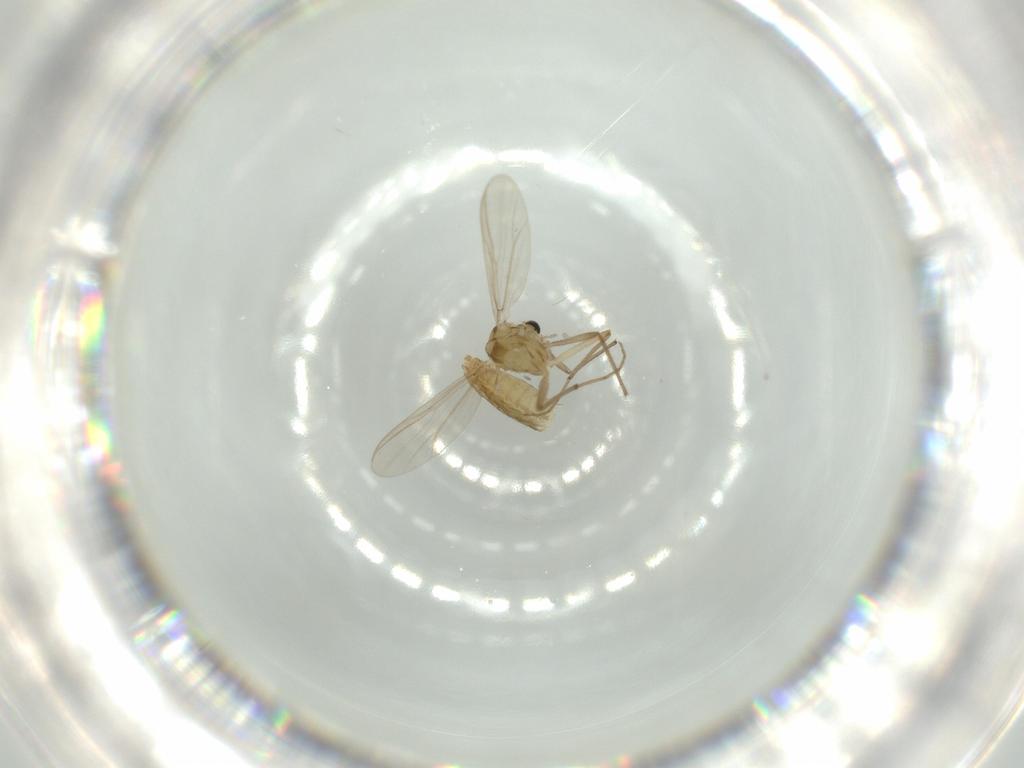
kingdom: Animalia
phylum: Arthropoda
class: Insecta
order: Diptera
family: Chironomidae
